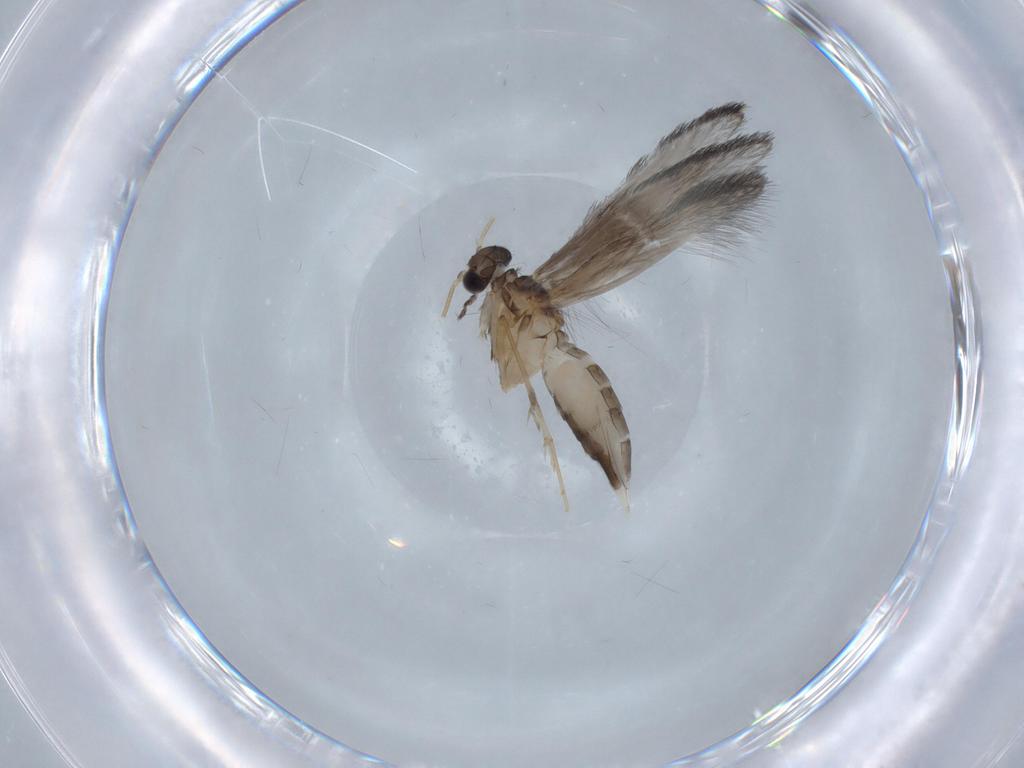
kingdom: Animalia
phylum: Arthropoda
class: Insecta
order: Trichoptera
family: Hydroptilidae
